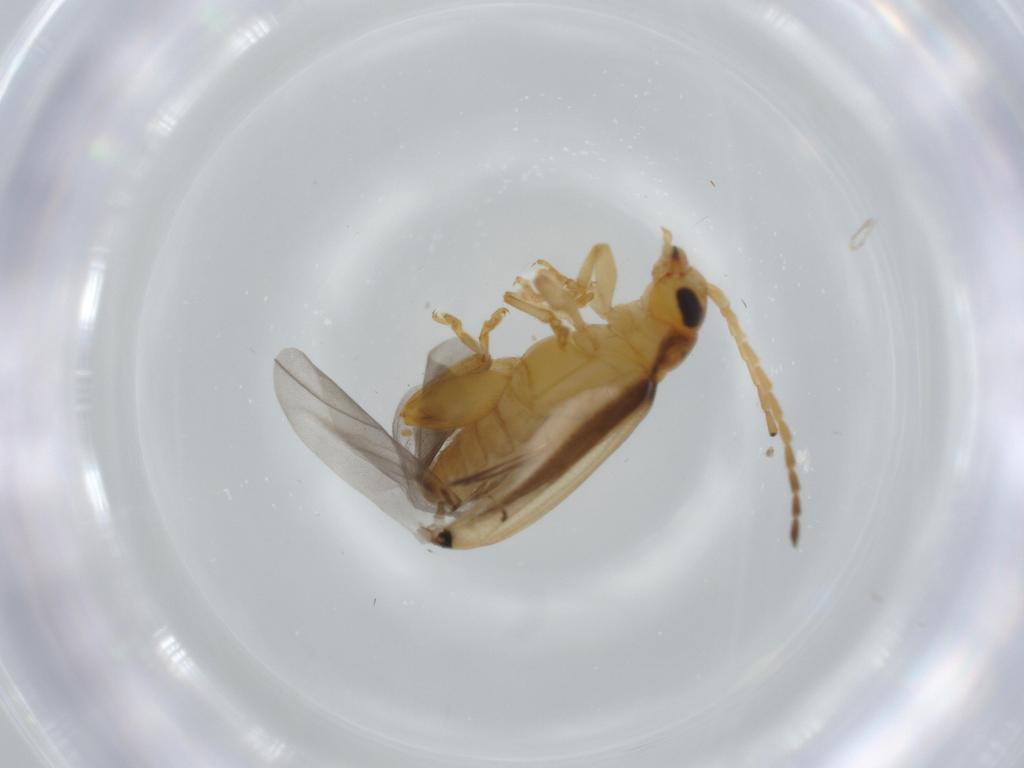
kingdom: Animalia
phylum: Arthropoda
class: Insecta
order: Coleoptera
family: Chrysomelidae
